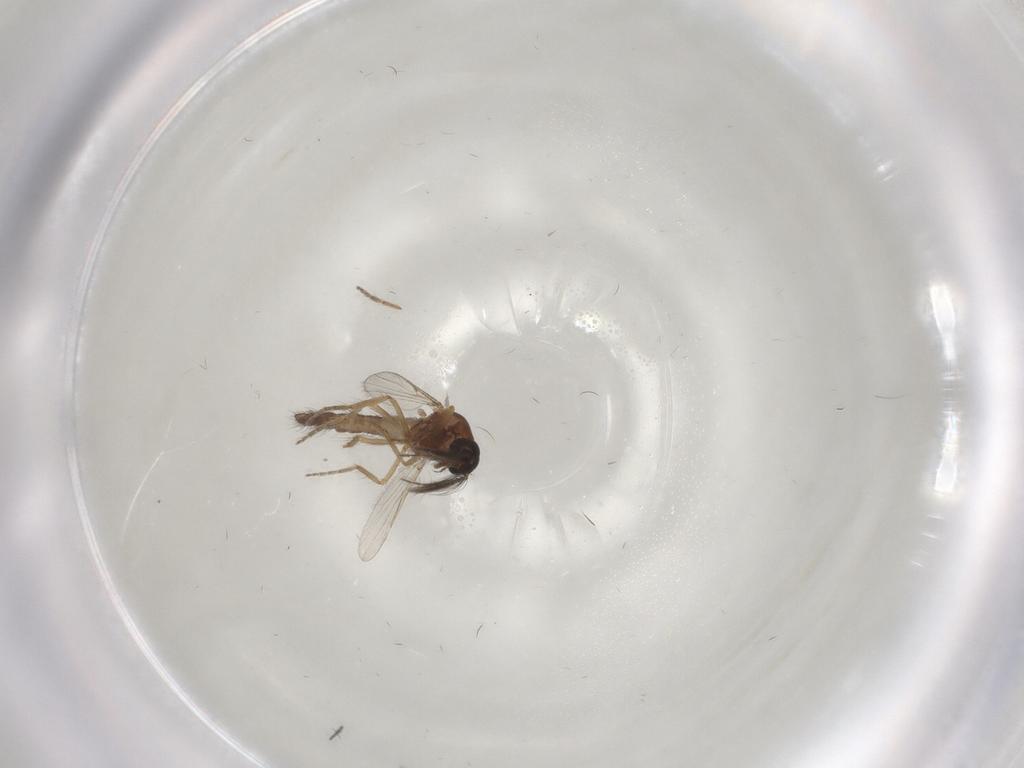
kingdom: Animalia
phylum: Arthropoda
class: Insecta
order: Diptera
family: Ceratopogonidae
